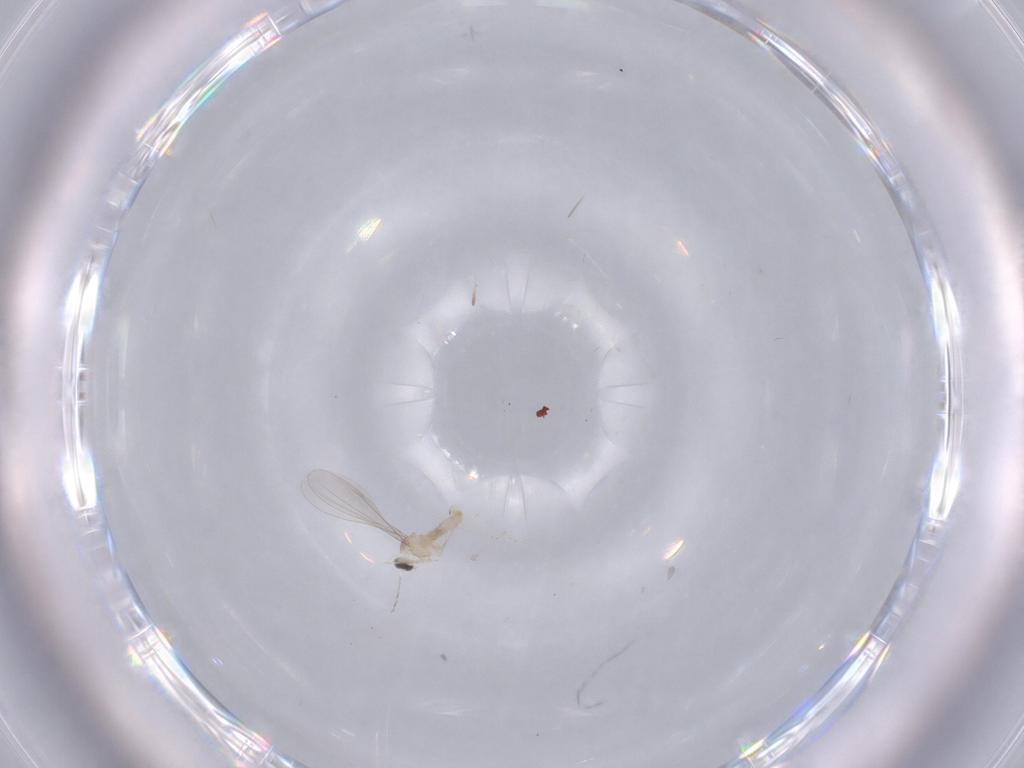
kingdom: Animalia
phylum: Arthropoda
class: Insecta
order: Diptera
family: Cecidomyiidae
